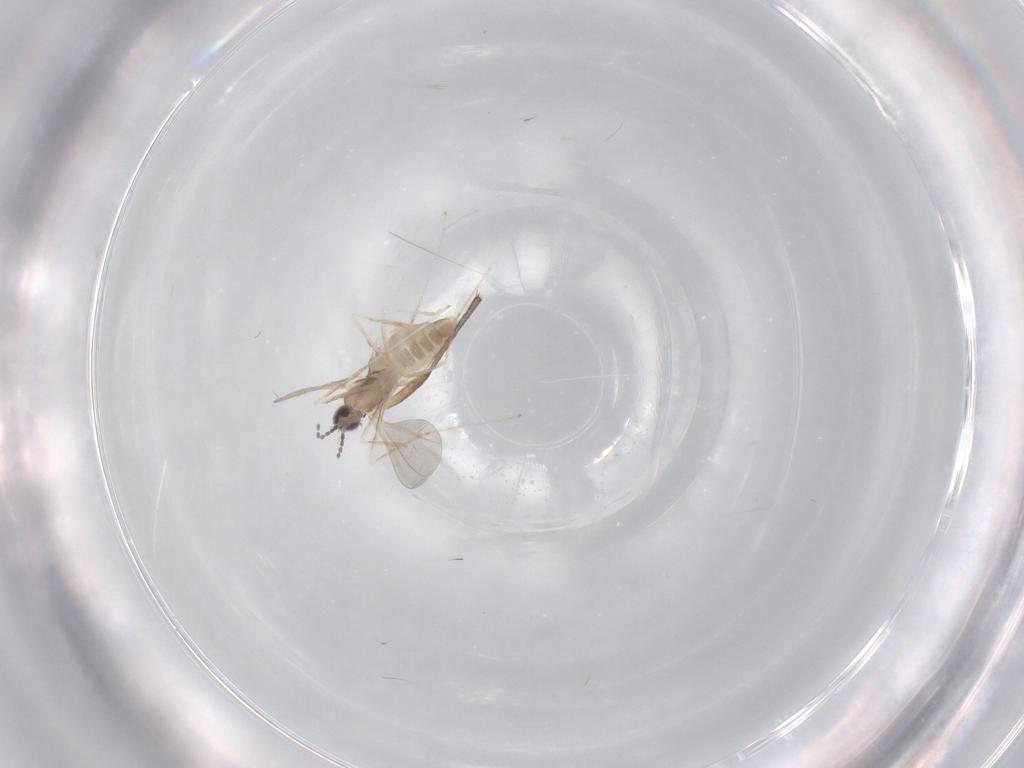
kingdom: Animalia
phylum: Arthropoda
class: Insecta
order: Diptera
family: Cecidomyiidae
